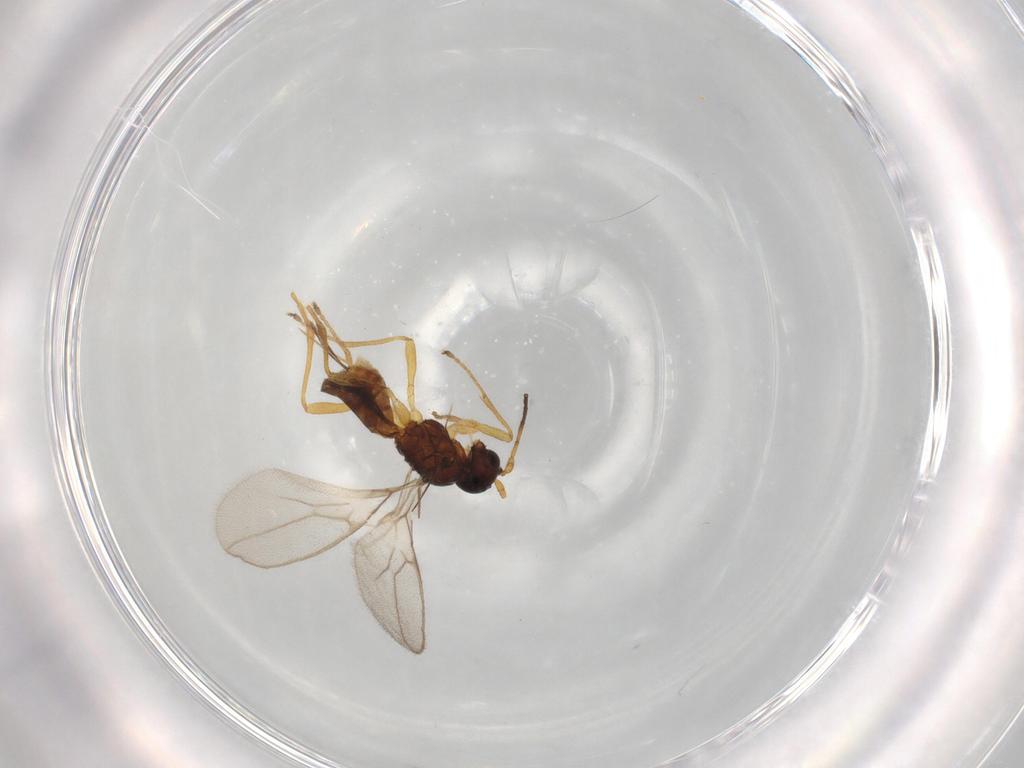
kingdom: Animalia
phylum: Arthropoda
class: Insecta
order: Hymenoptera
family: Braconidae
